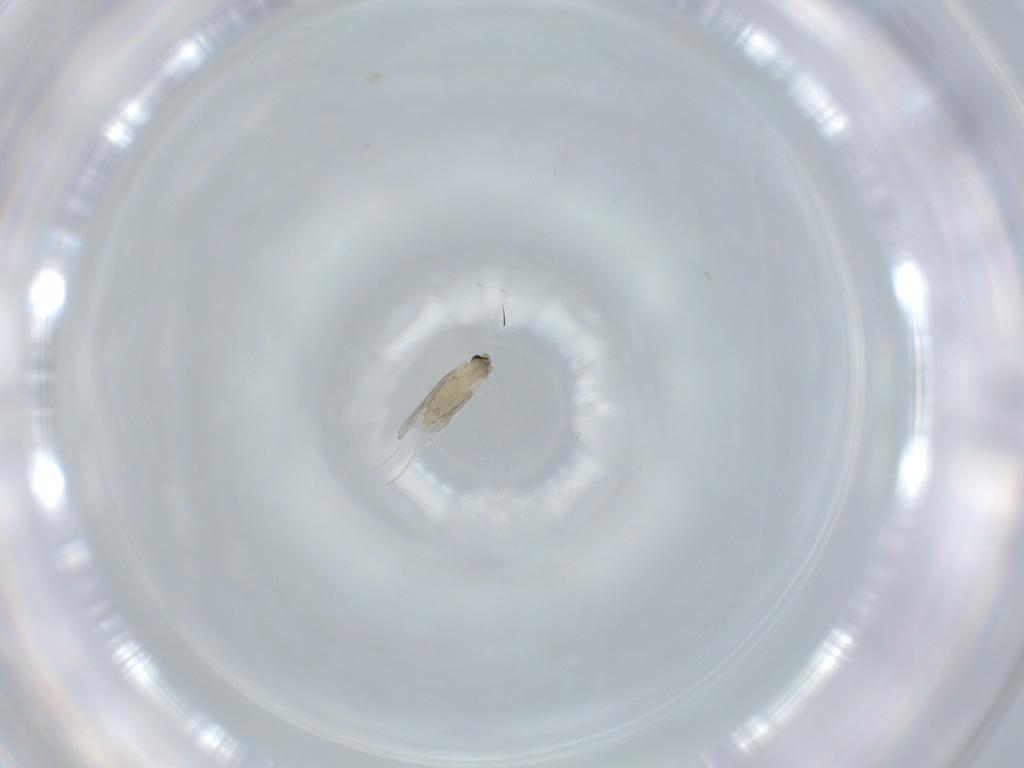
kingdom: Animalia
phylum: Arthropoda
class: Insecta
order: Diptera
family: Cecidomyiidae
